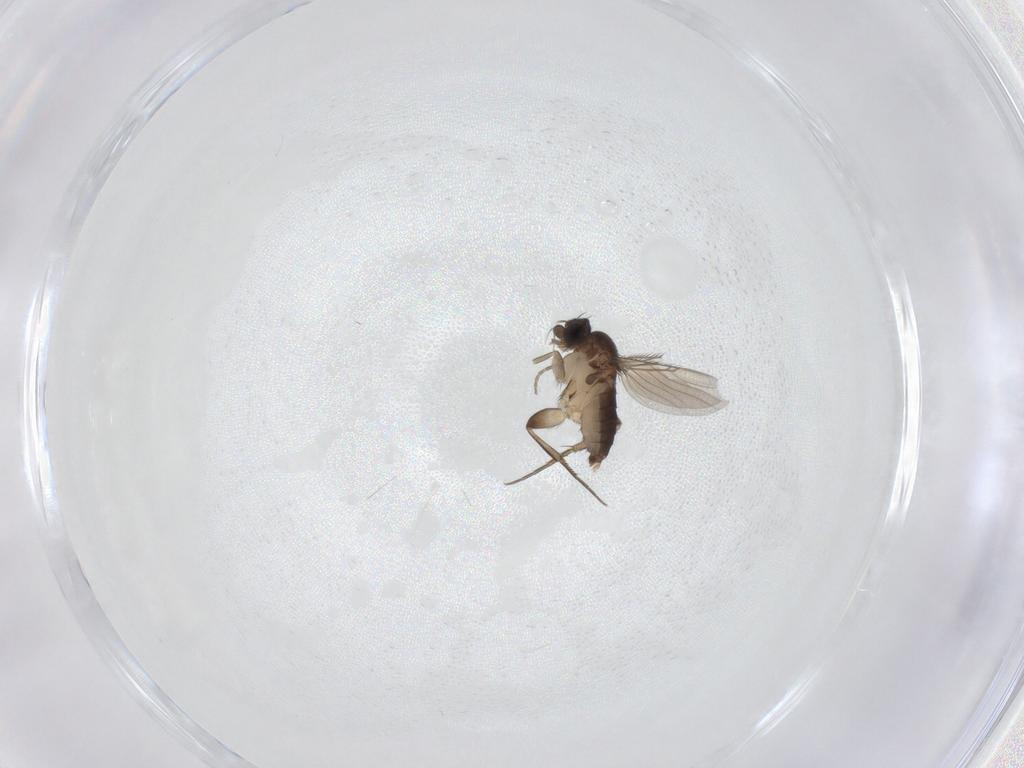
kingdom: Animalia
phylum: Arthropoda
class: Insecta
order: Diptera
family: Phoridae
